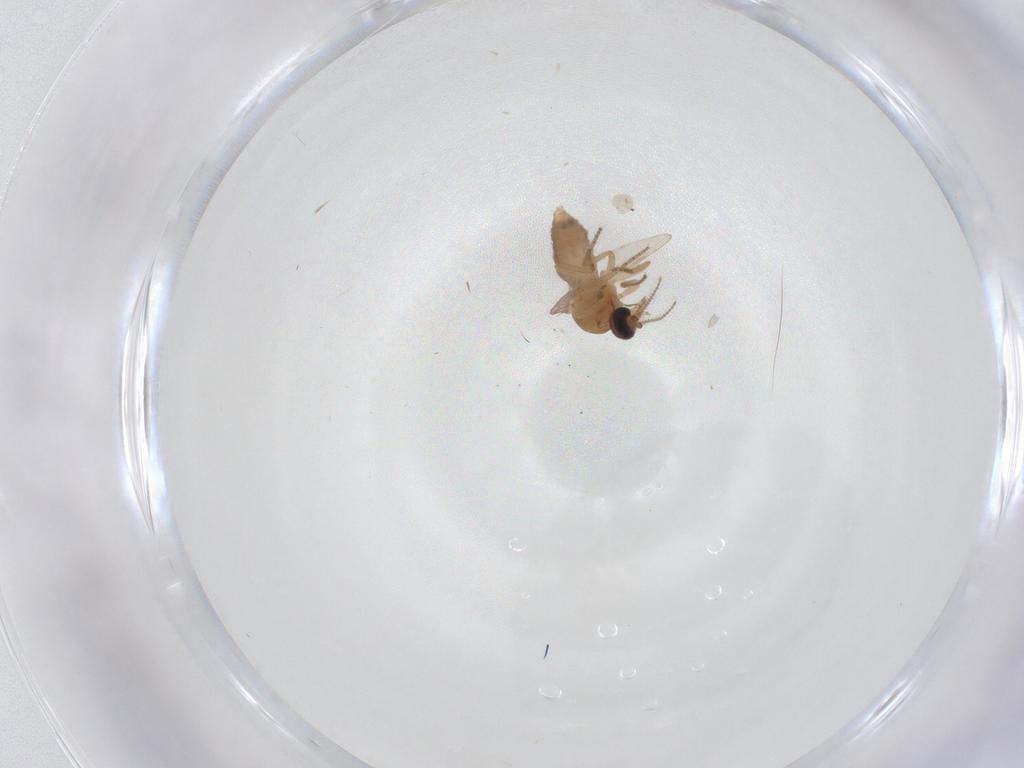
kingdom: Animalia
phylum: Arthropoda
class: Insecta
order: Diptera
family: Ceratopogonidae
